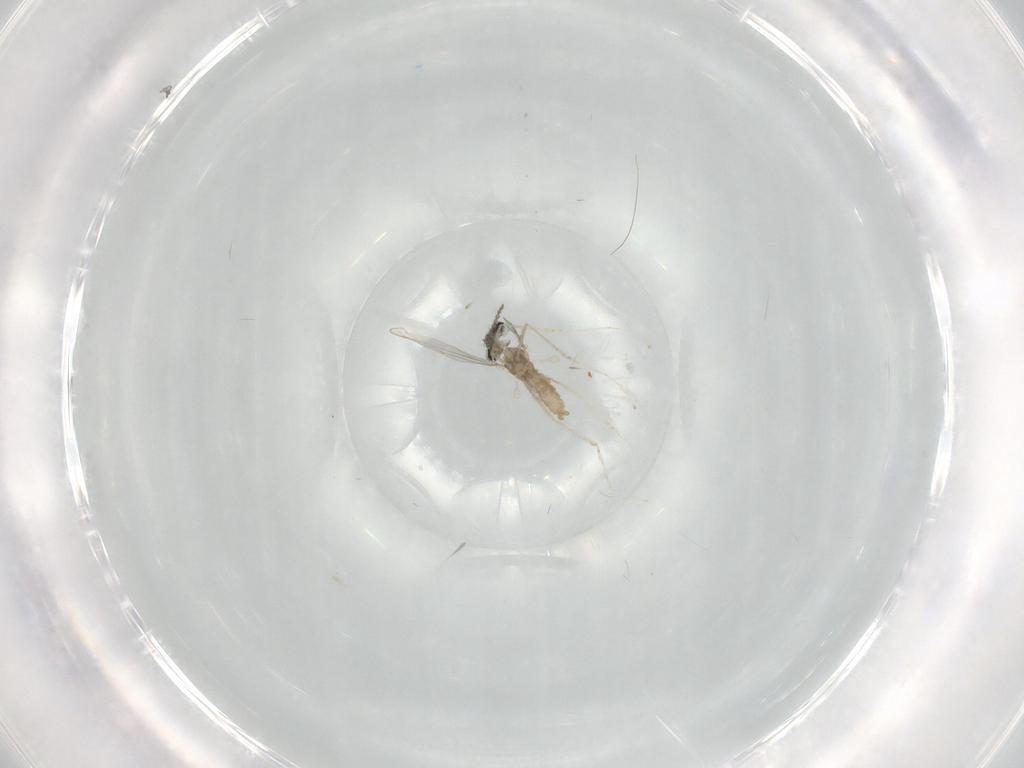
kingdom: Animalia
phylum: Arthropoda
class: Insecta
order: Diptera
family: Cecidomyiidae
